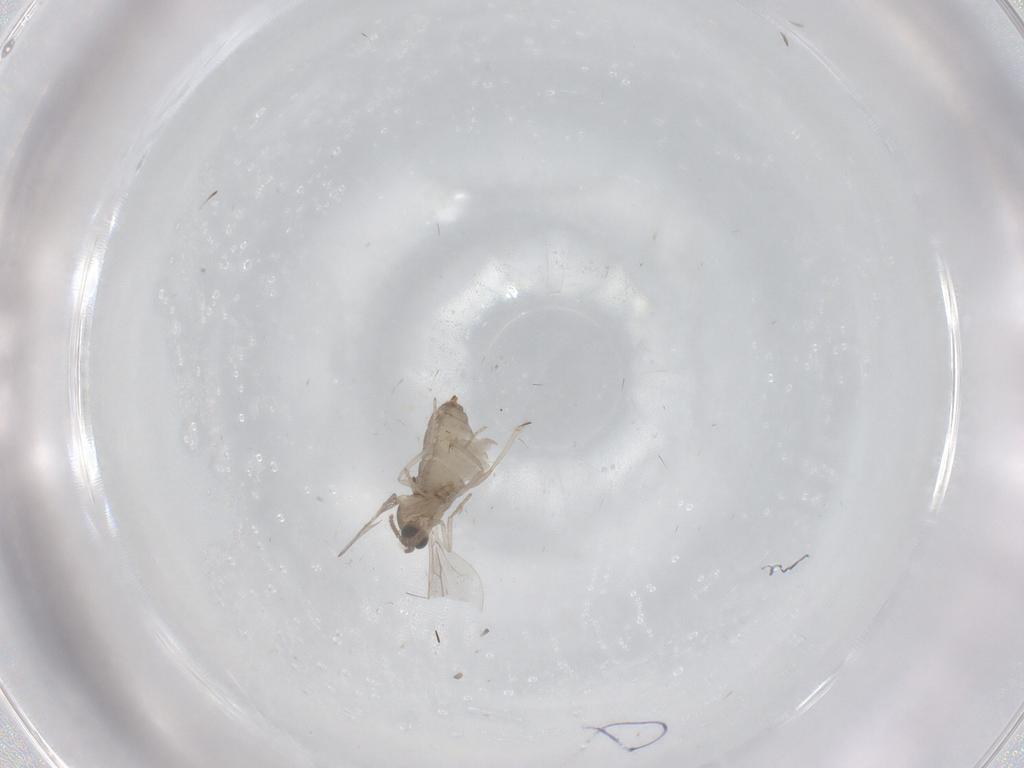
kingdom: Animalia
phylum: Arthropoda
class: Insecta
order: Diptera
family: Cecidomyiidae
